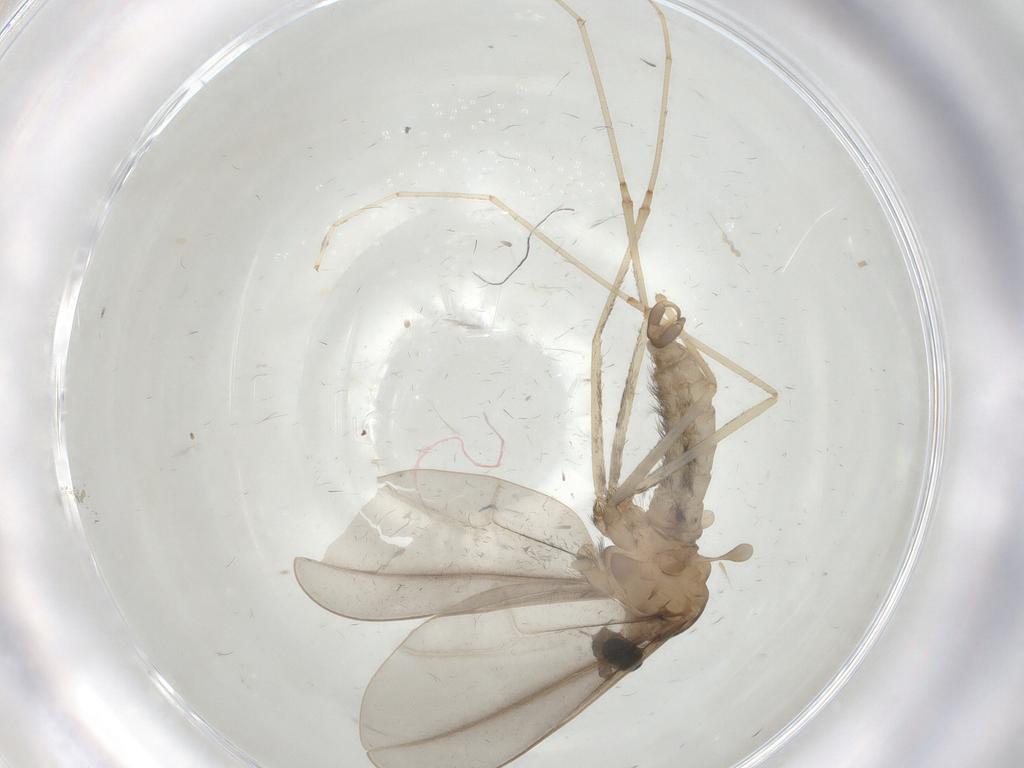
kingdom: Animalia
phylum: Arthropoda
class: Insecta
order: Diptera
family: Cecidomyiidae
